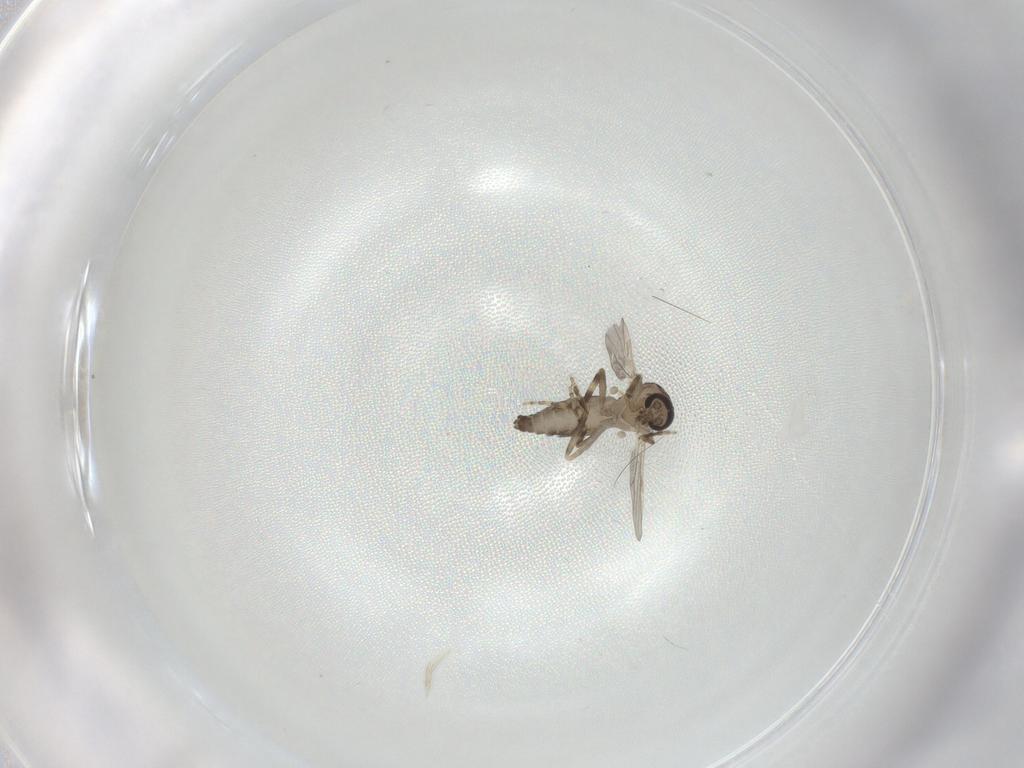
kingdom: Animalia
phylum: Arthropoda
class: Insecta
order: Diptera
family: Ceratopogonidae
